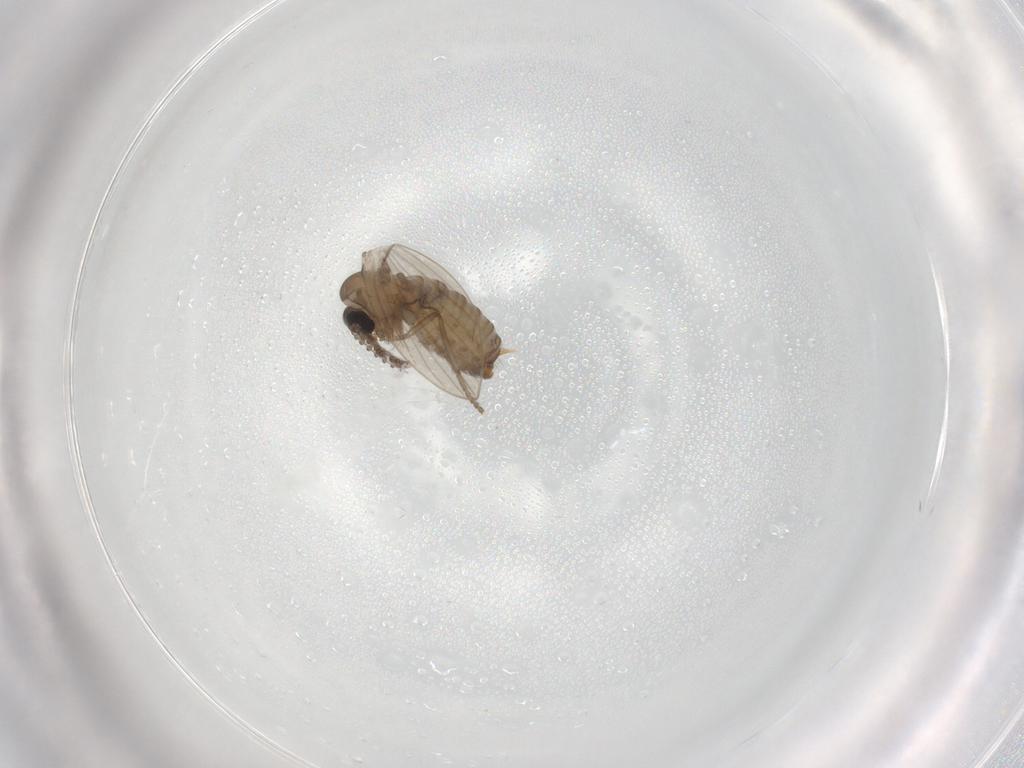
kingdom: Animalia
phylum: Arthropoda
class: Insecta
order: Diptera
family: Psychodidae
